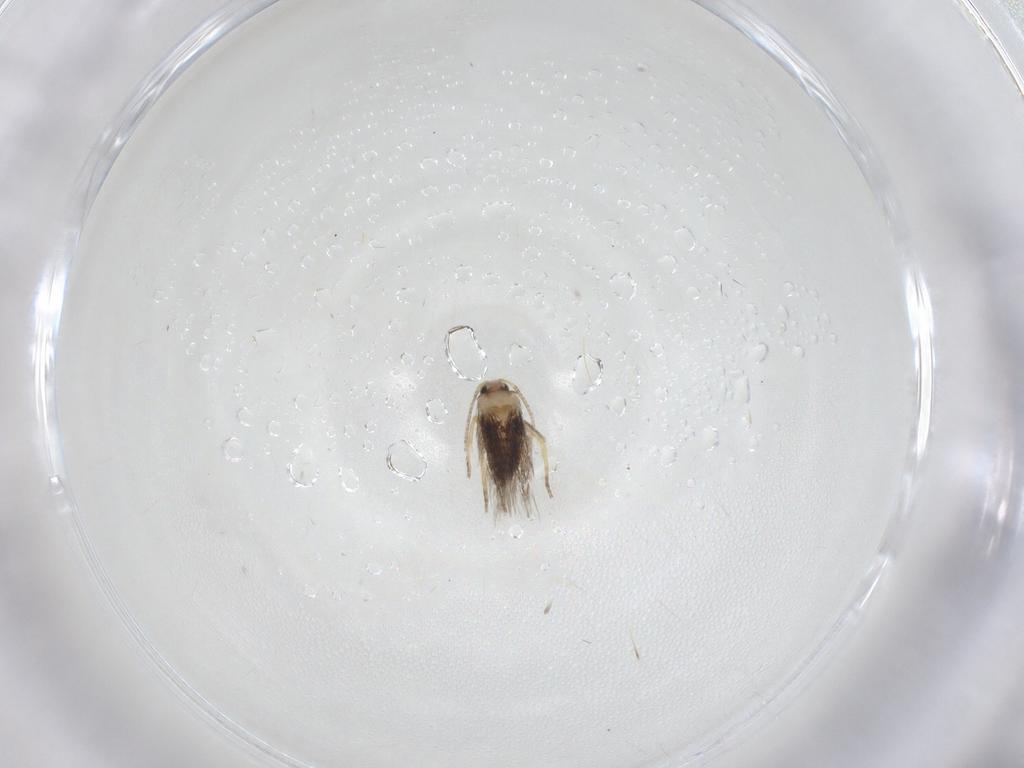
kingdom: Animalia
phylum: Arthropoda
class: Insecta
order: Lepidoptera
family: Nepticulidae
